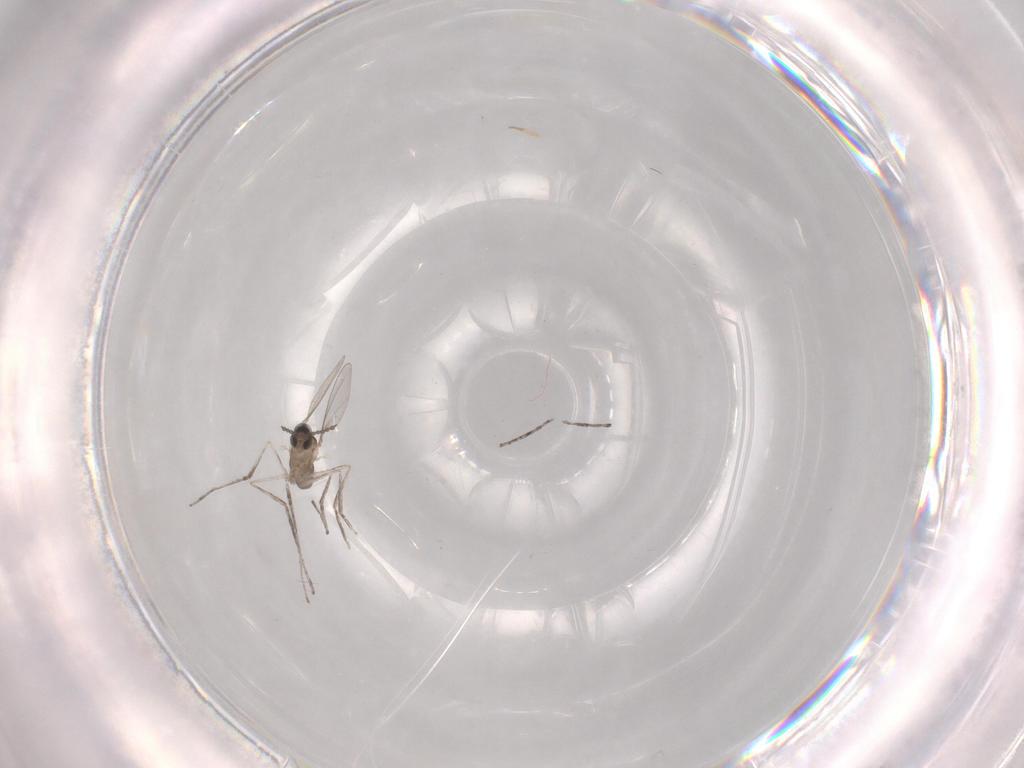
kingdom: Animalia
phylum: Arthropoda
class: Insecta
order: Diptera
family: Cecidomyiidae
